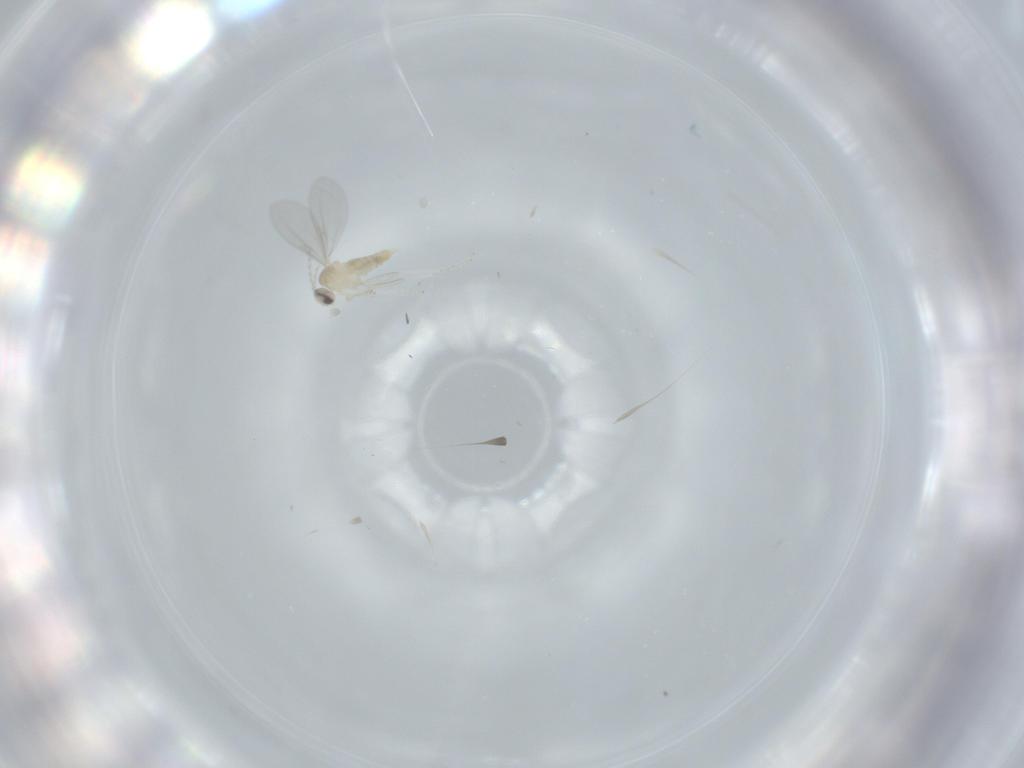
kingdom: Animalia
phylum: Arthropoda
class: Insecta
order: Diptera
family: Cecidomyiidae
